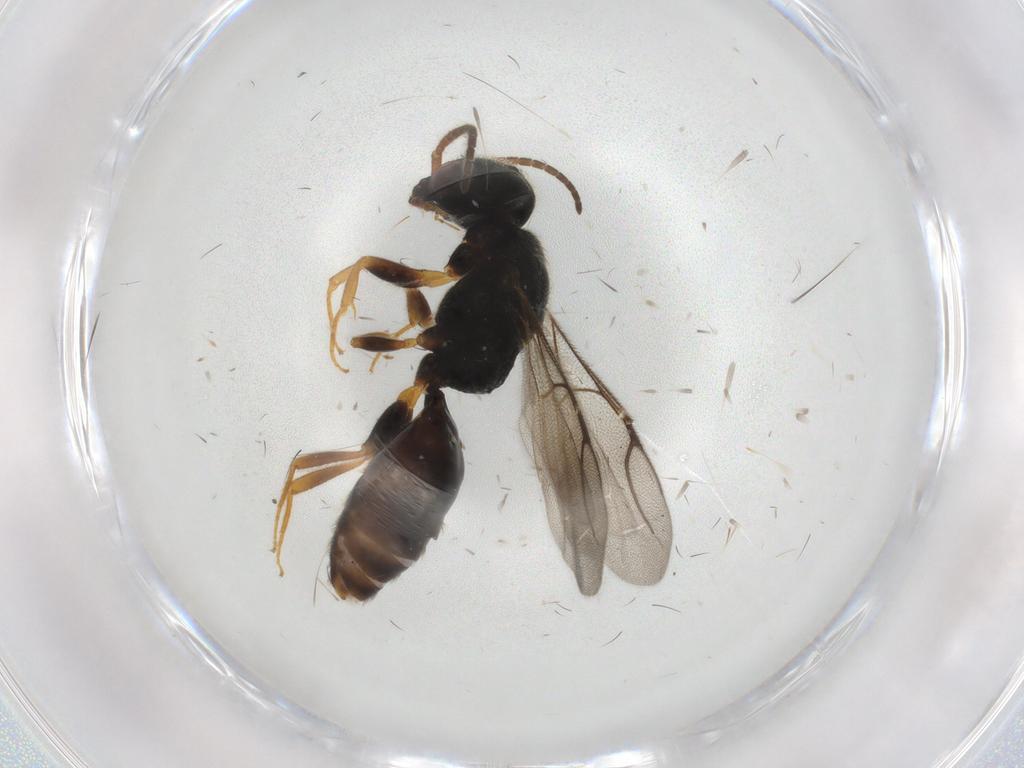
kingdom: Animalia
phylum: Arthropoda
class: Insecta
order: Hymenoptera
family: Bethylidae
